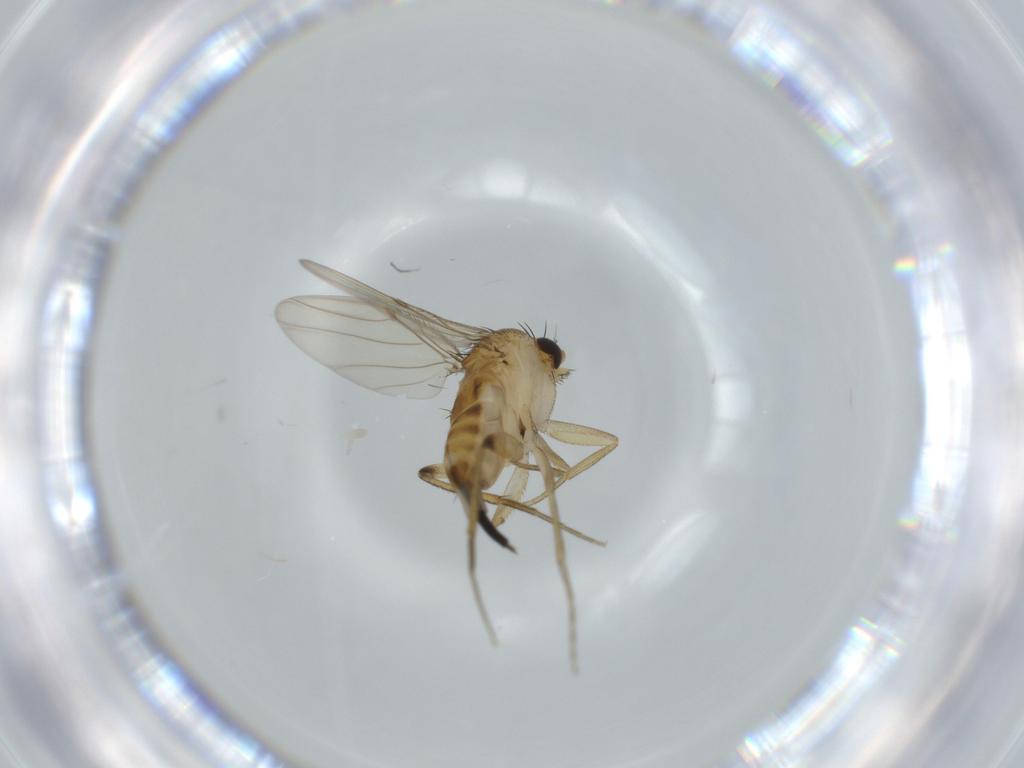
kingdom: Animalia
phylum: Arthropoda
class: Insecta
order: Diptera
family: Phoridae
